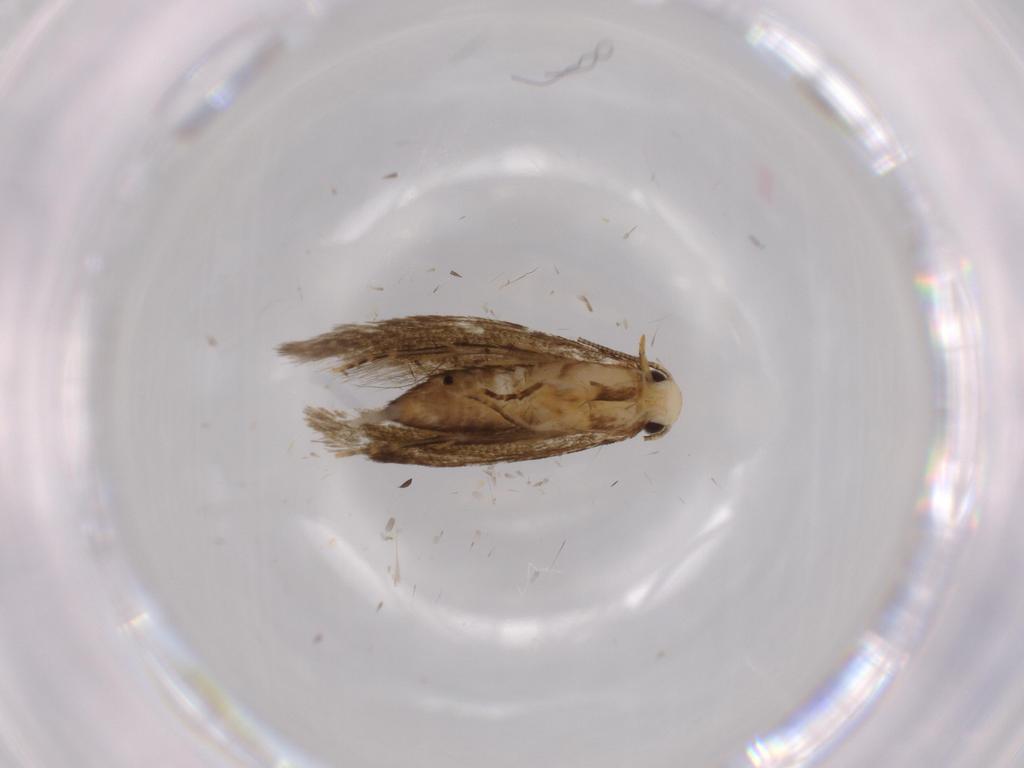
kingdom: Animalia
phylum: Arthropoda
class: Insecta
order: Lepidoptera
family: Tineidae
